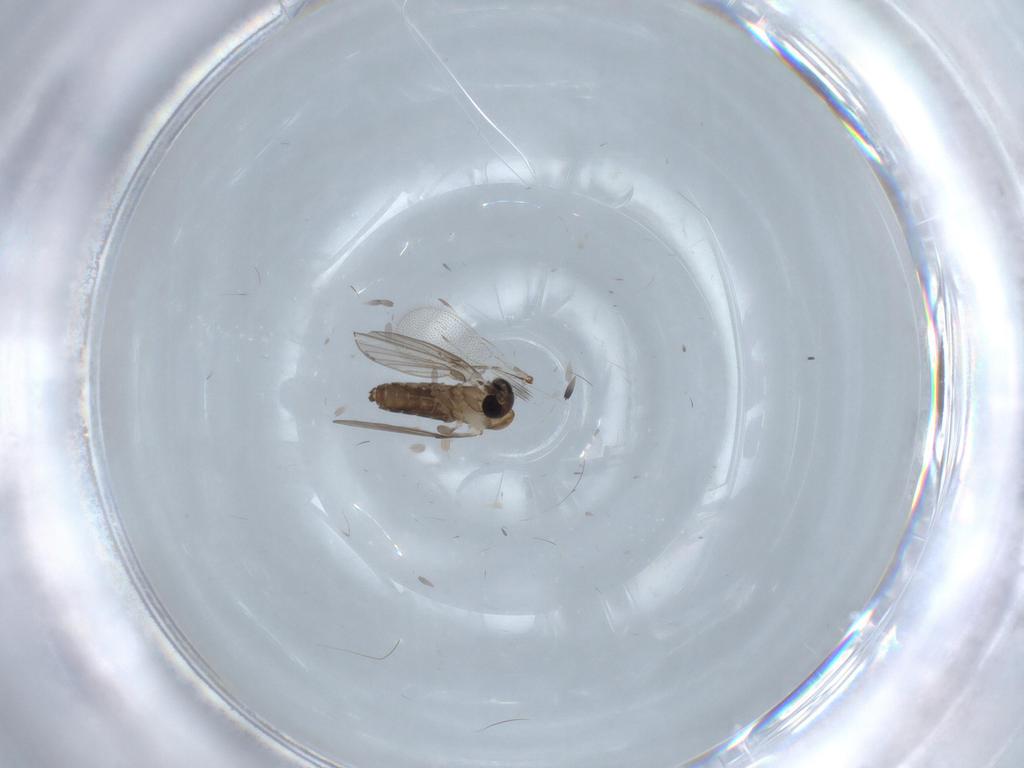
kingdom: Animalia
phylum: Arthropoda
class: Insecta
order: Diptera
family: Psychodidae
